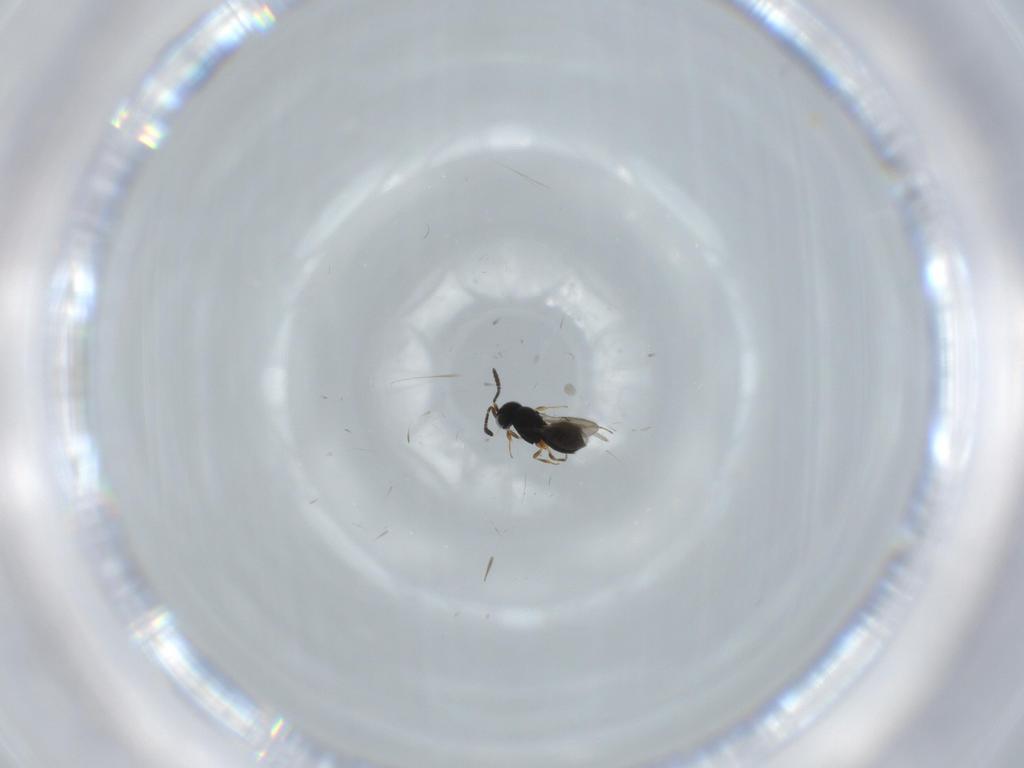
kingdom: Animalia
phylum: Arthropoda
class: Insecta
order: Hymenoptera
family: Scelionidae
